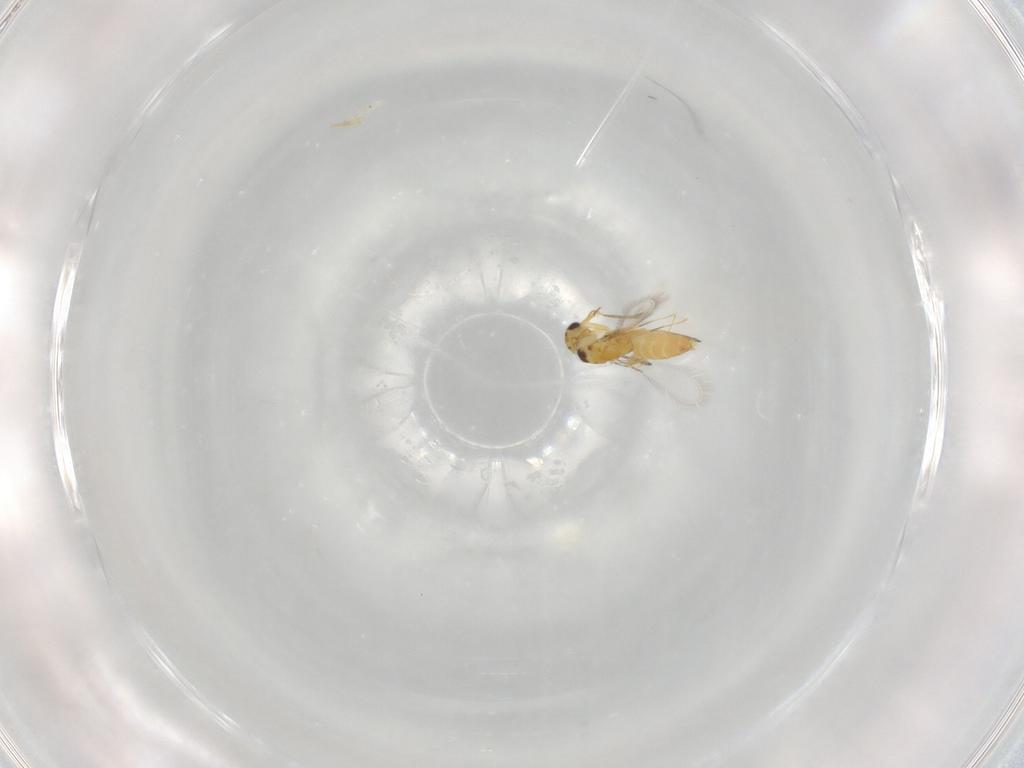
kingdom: Animalia
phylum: Arthropoda
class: Insecta
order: Hymenoptera
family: Mymaridae
